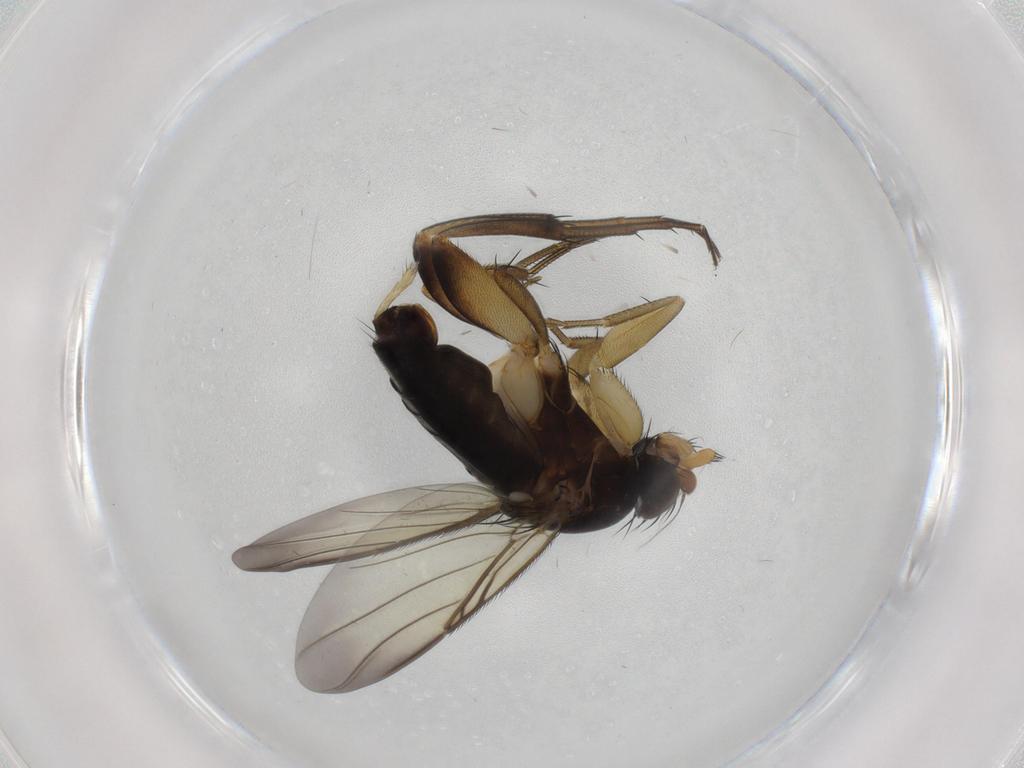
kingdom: Animalia
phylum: Arthropoda
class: Insecta
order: Diptera
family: Phoridae
